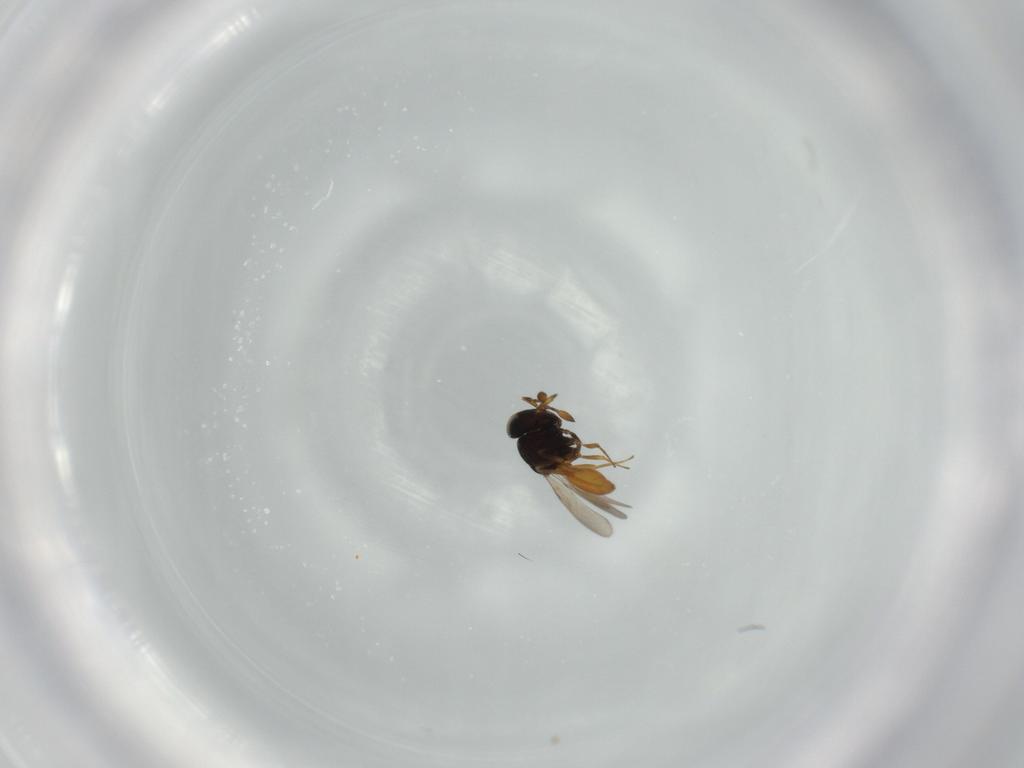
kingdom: Animalia
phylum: Arthropoda
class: Insecta
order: Hymenoptera
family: Scelionidae
